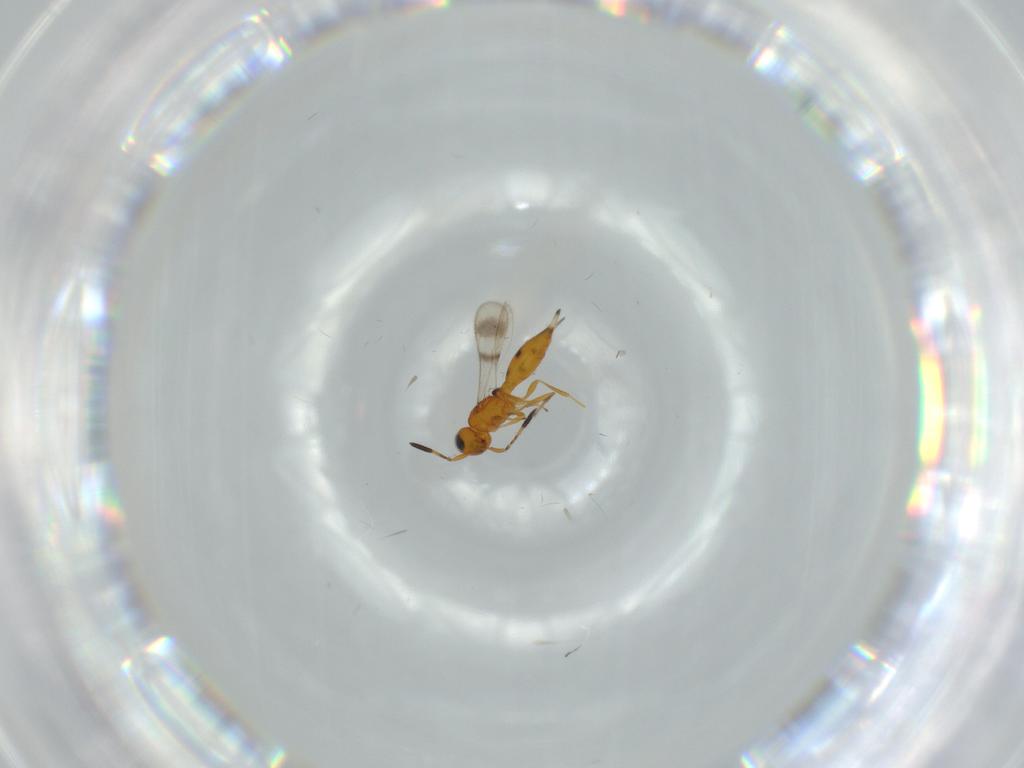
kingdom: Animalia
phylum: Arthropoda
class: Insecta
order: Hymenoptera
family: Scelionidae
